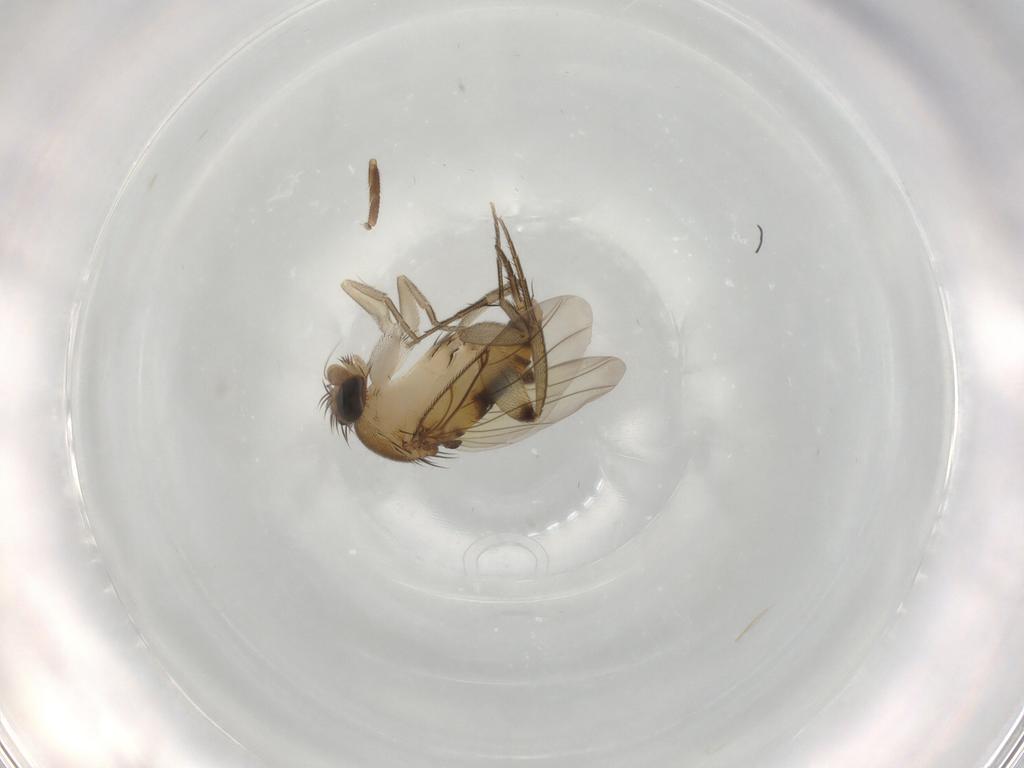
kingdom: Animalia
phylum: Arthropoda
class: Insecta
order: Diptera
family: Phoridae
